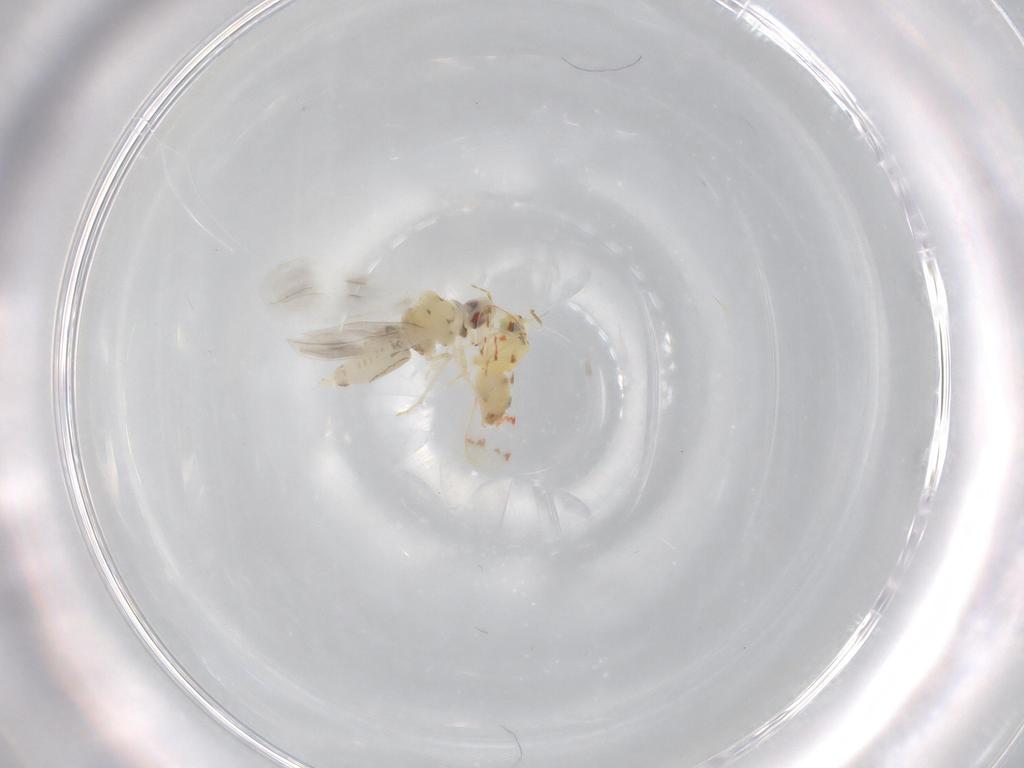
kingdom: Animalia
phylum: Arthropoda
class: Insecta
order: Hemiptera
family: Aleyrodidae
